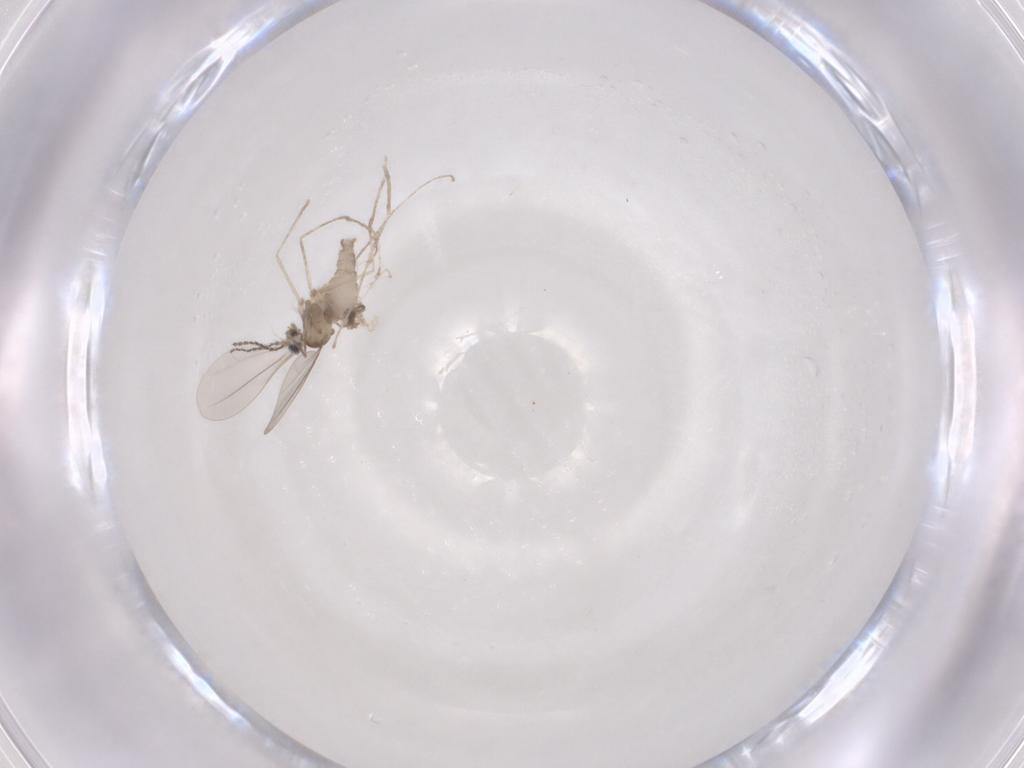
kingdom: Animalia
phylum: Arthropoda
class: Insecta
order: Diptera
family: Cecidomyiidae
